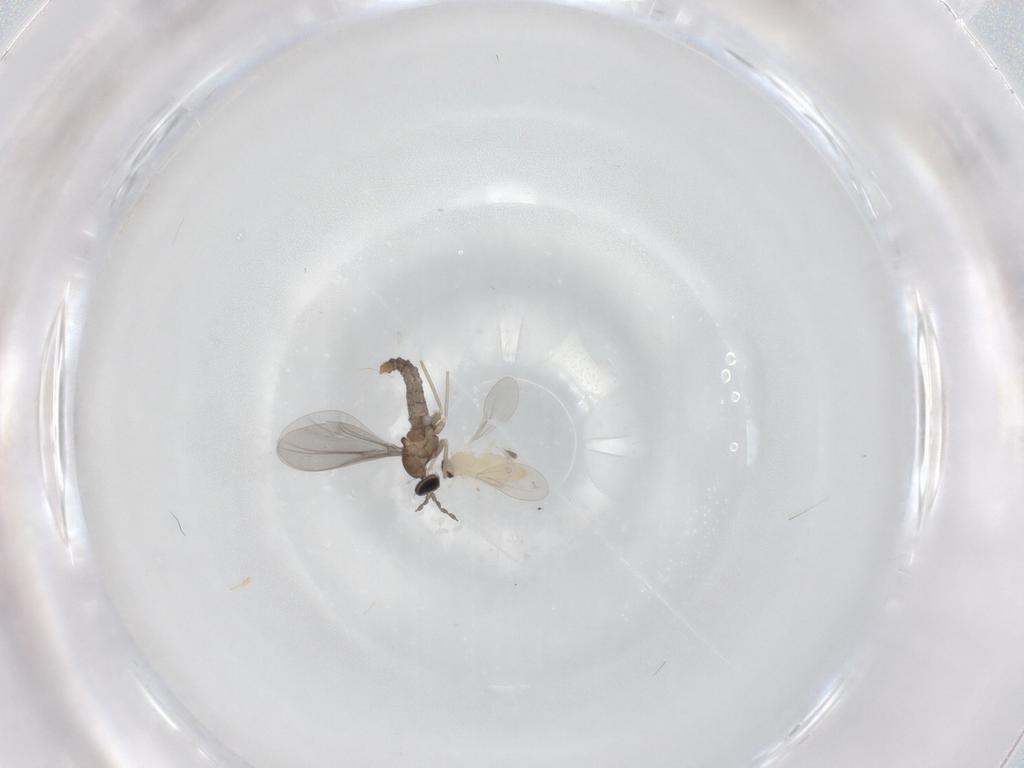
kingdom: Animalia
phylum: Arthropoda
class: Insecta
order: Diptera
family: Cecidomyiidae
